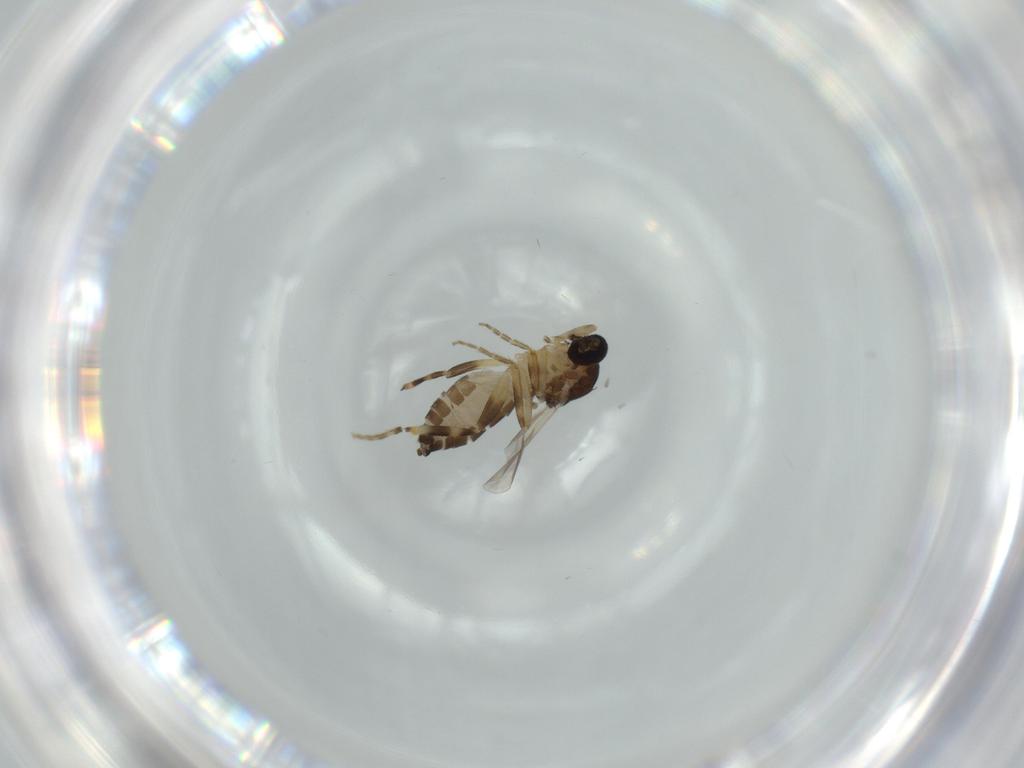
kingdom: Animalia
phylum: Arthropoda
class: Insecta
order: Diptera
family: Ceratopogonidae
